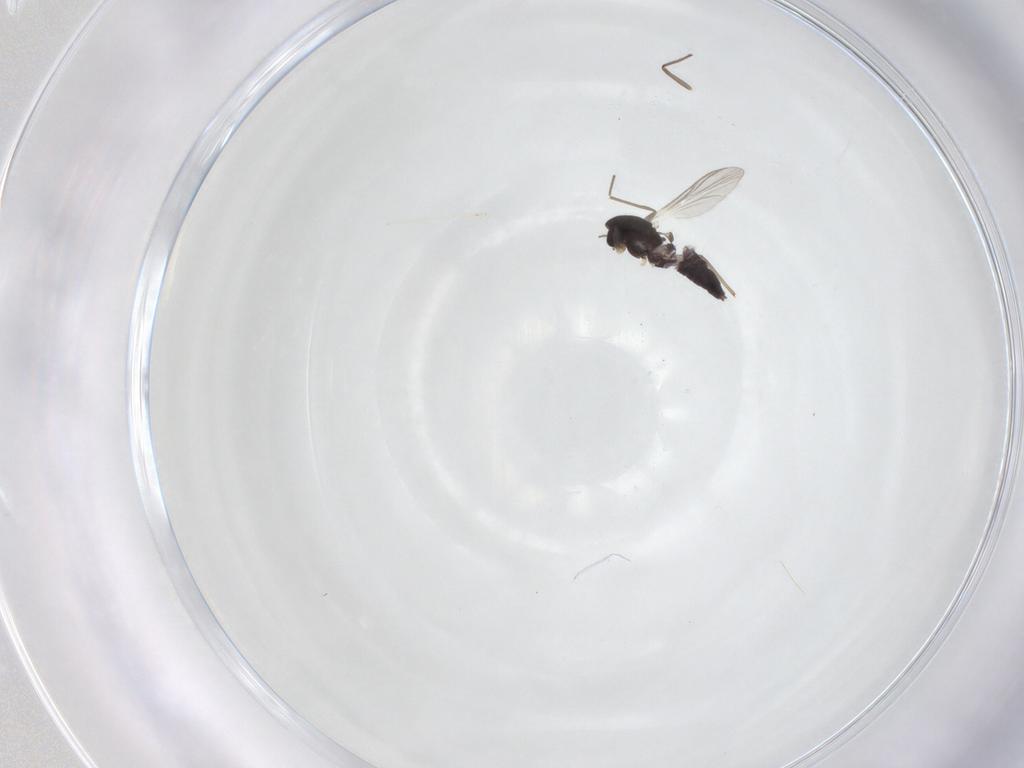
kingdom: Animalia
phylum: Arthropoda
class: Insecta
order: Diptera
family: Chironomidae
